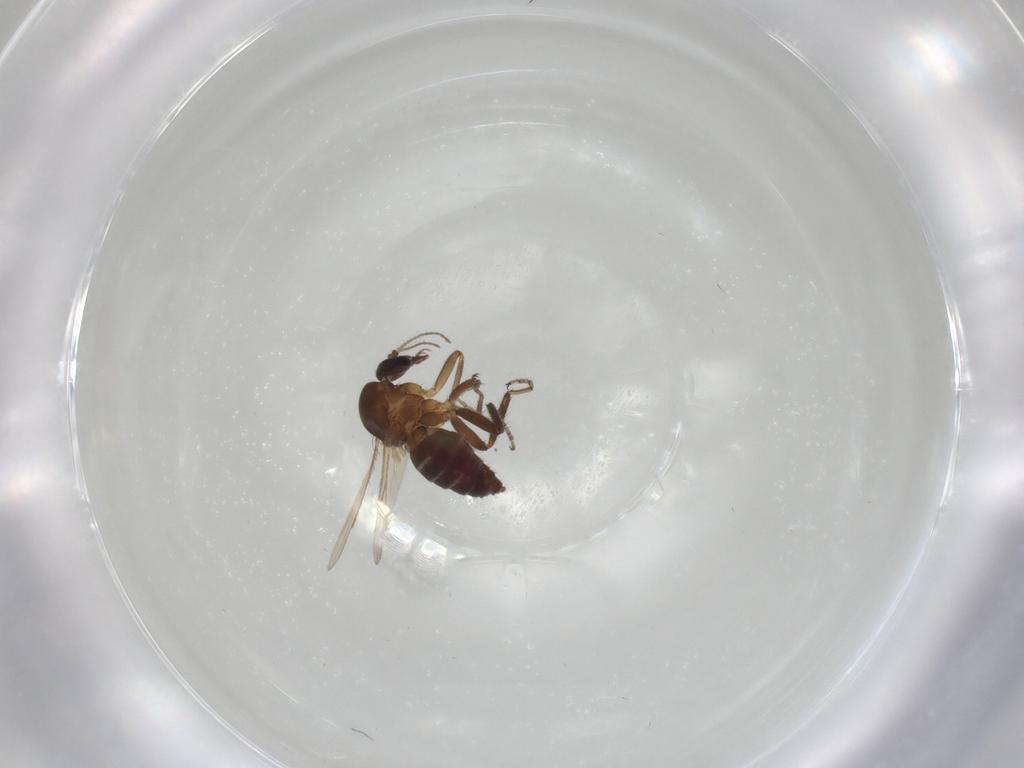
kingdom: Animalia
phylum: Arthropoda
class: Insecta
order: Diptera
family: Ceratopogonidae
